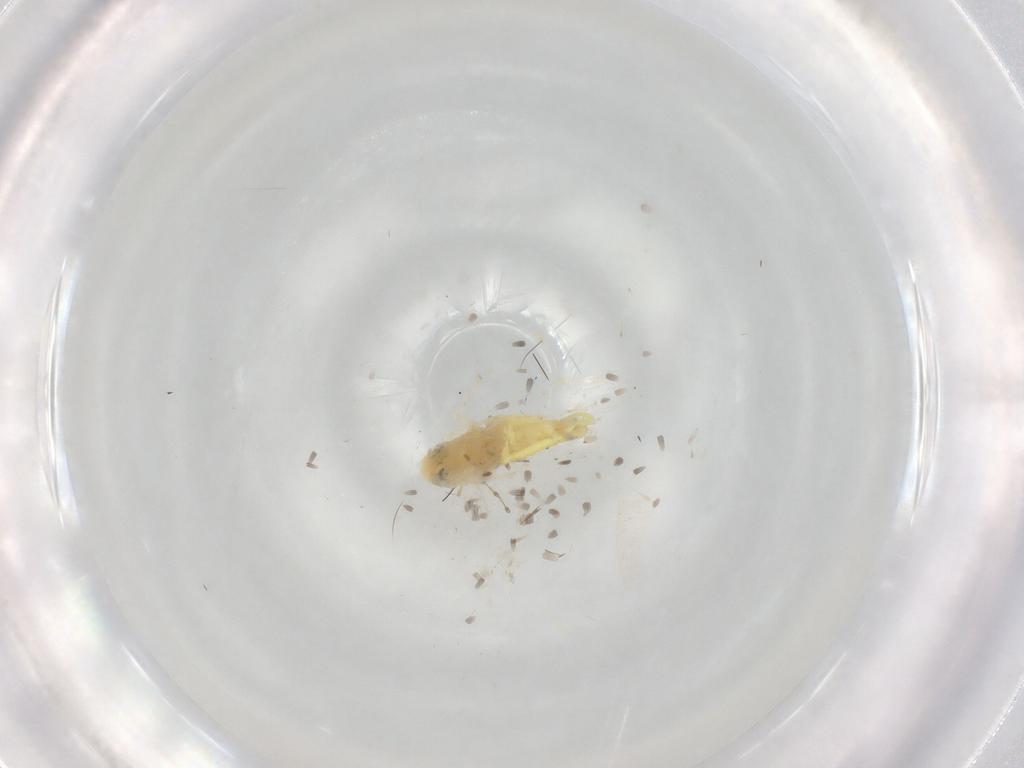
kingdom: Animalia
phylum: Arthropoda
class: Insecta
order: Hemiptera
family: Cicadellidae
